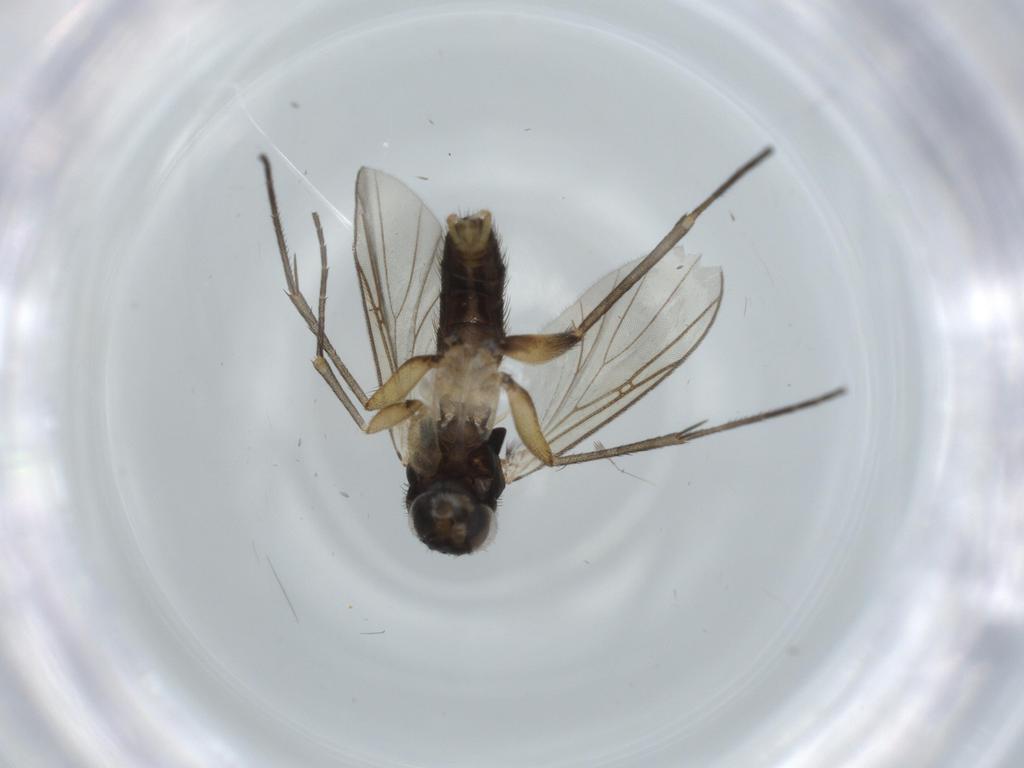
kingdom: Animalia
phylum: Arthropoda
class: Insecta
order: Diptera
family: Mycetophilidae
